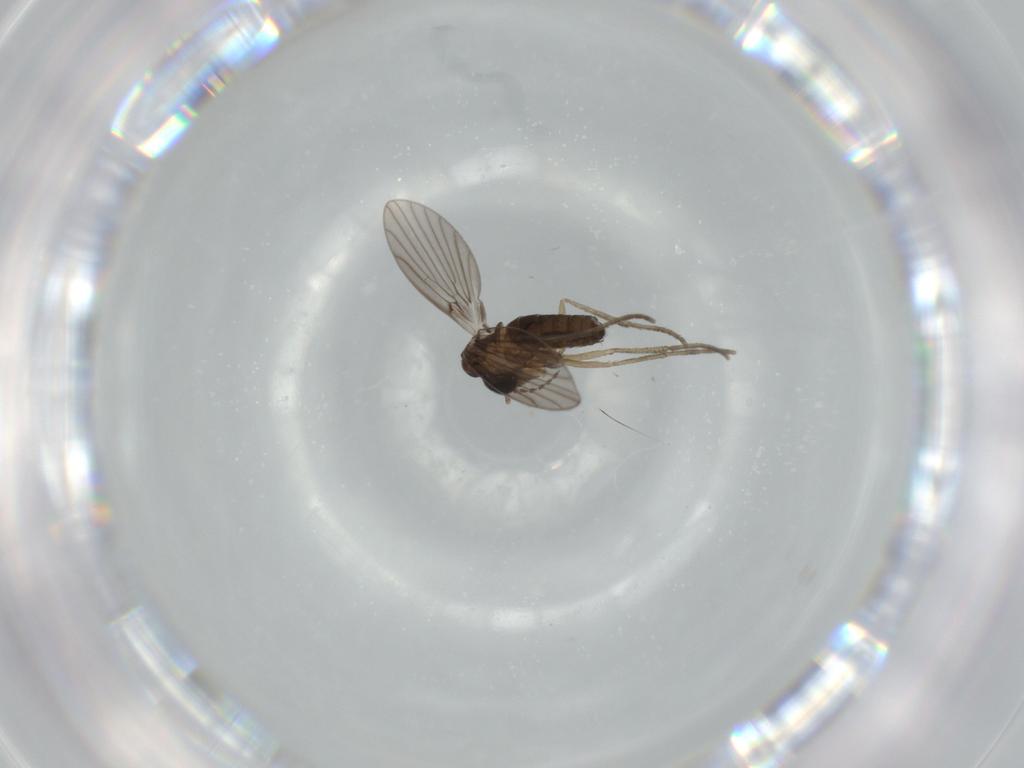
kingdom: Animalia
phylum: Arthropoda
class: Insecta
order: Diptera
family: Psychodidae
